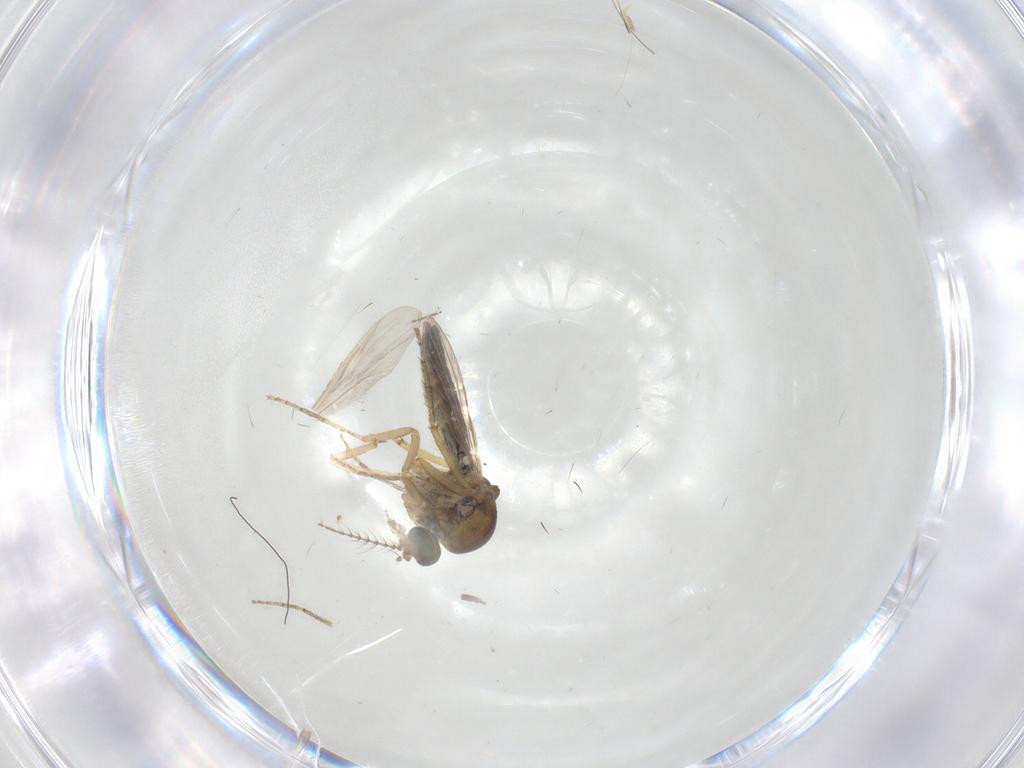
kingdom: Animalia
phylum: Arthropoda
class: Insecta
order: Diptera
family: Ceratopogonidae
